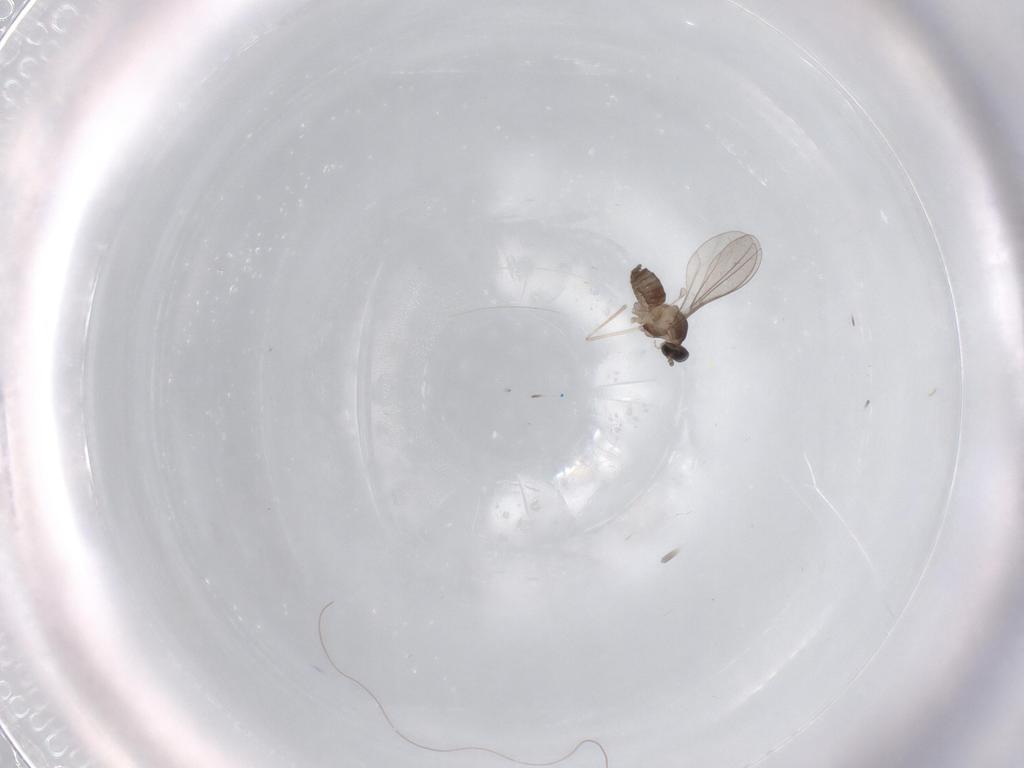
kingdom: Animalia
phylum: Arthropoda
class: Insecta
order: Diptera
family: Cecidomyiidae
